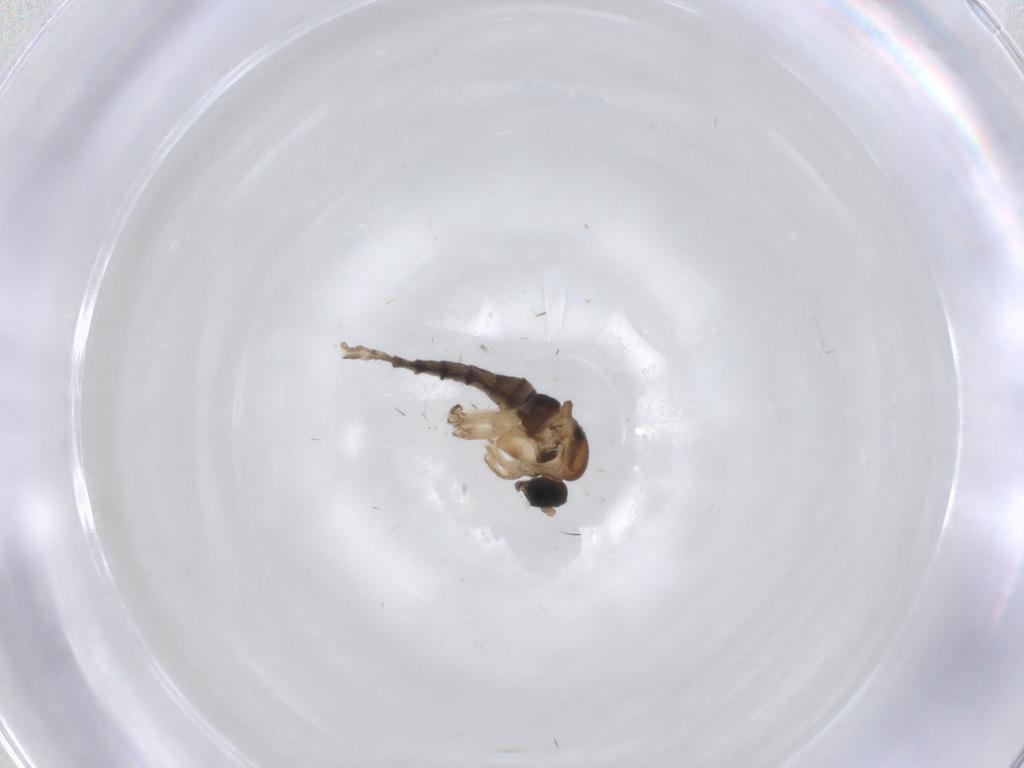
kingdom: Animalia
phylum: Arthropoda
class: Insecta
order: Diptera
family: Sciaridae
